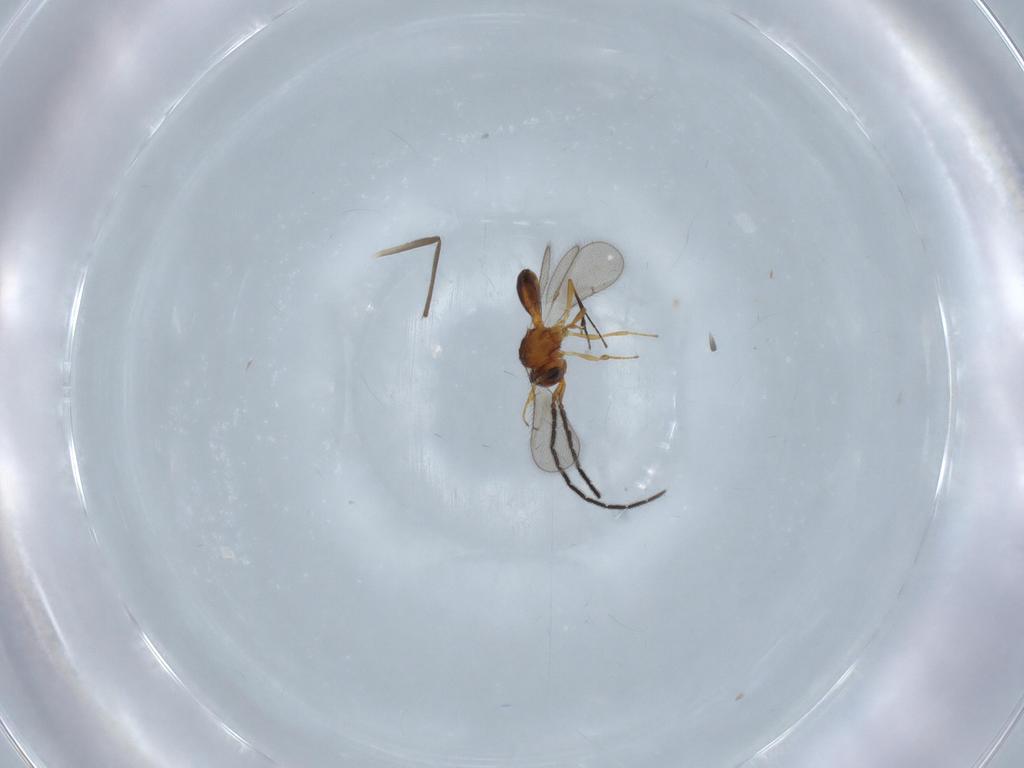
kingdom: Animalia
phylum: Arthropoda
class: Insecta
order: Hymenoptera
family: Scelionidae
